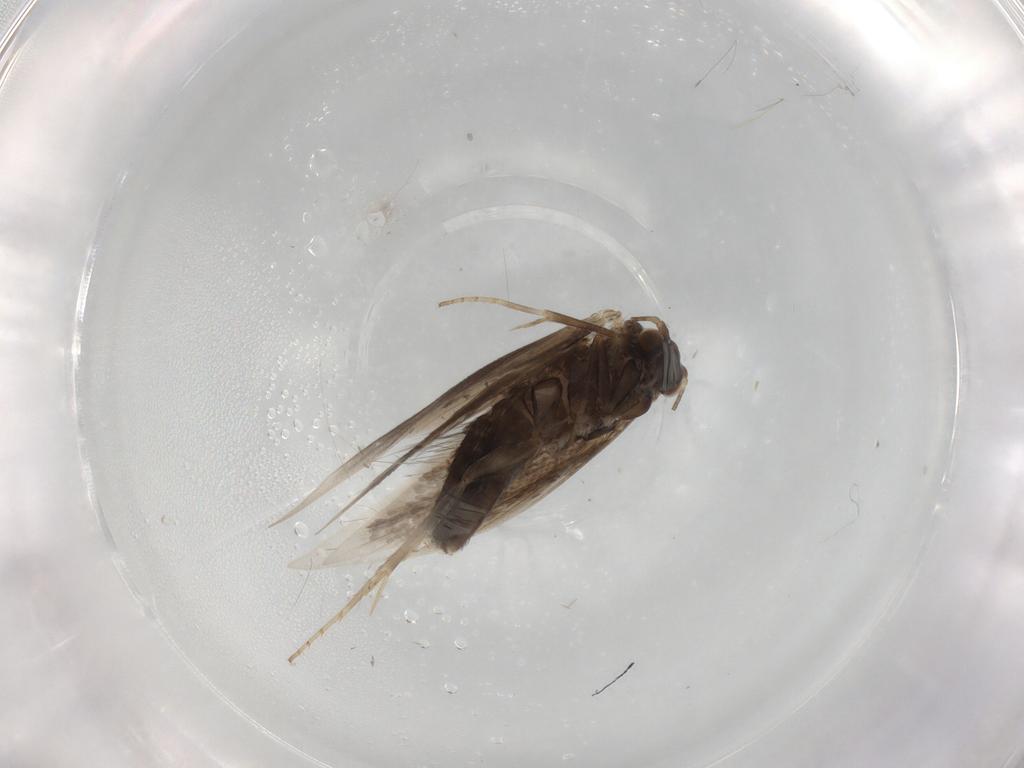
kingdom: Animalia
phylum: Arthropoda
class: Insecta
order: Lepidoptera
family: Incurvariidae
